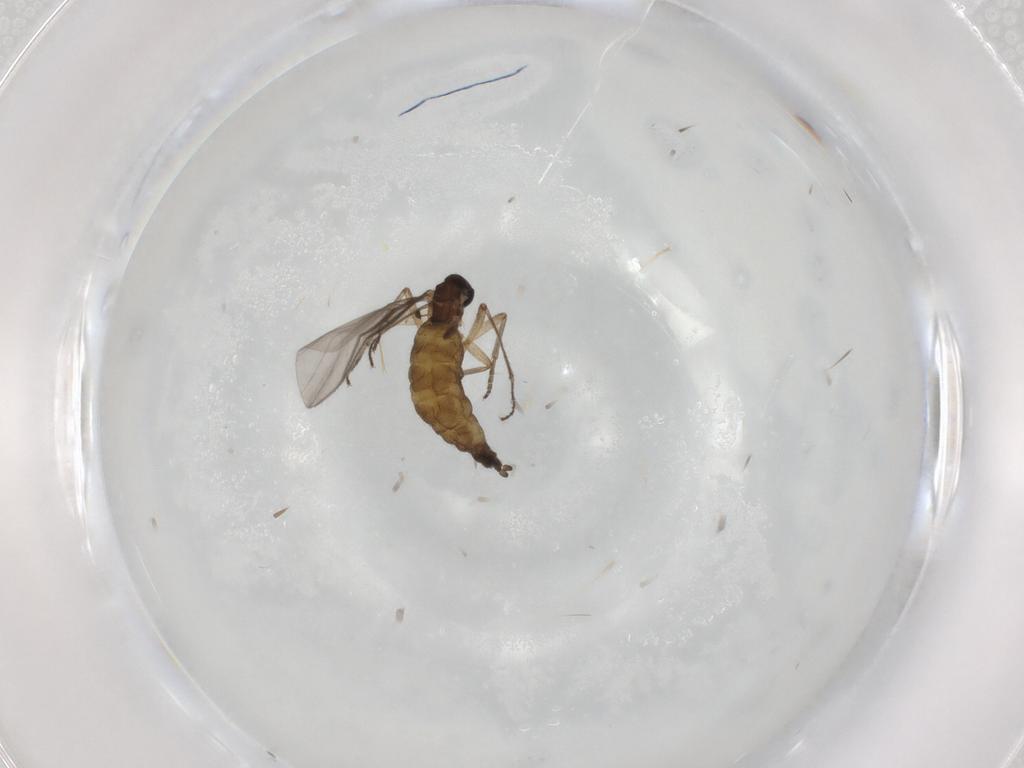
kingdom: Animalia
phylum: Arthropoda
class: Insecta
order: Diptera
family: Sciaridae
